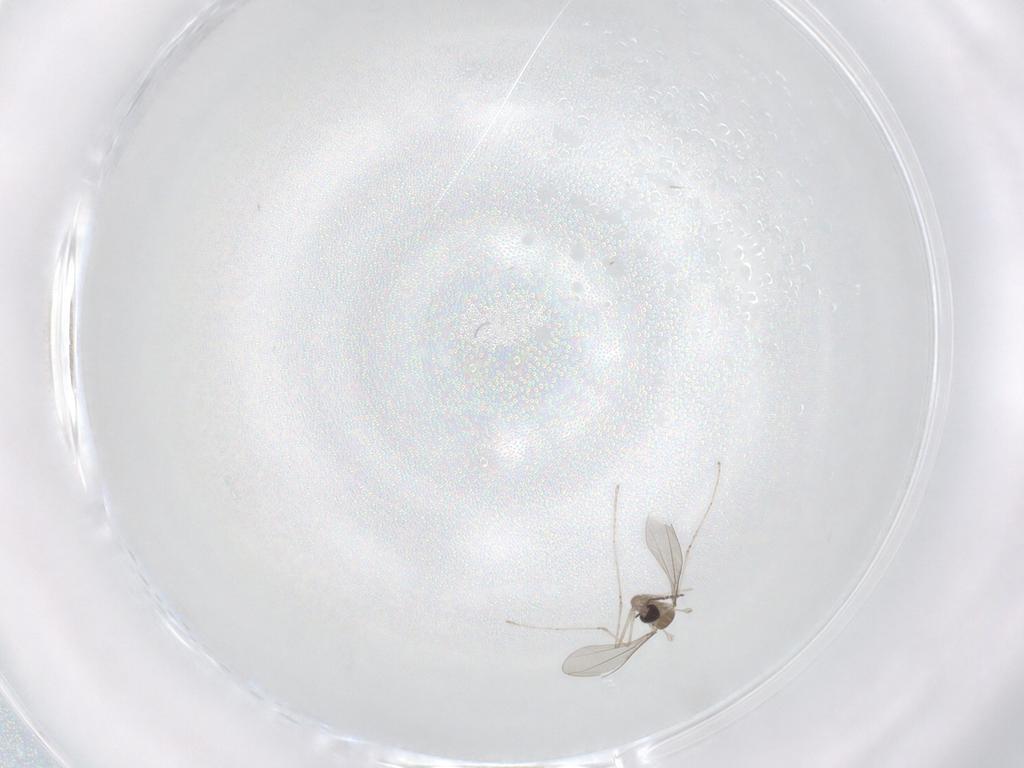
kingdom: Animalia
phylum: Arthropoda
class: Insecta
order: Diptera
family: Cecidomyiidae
